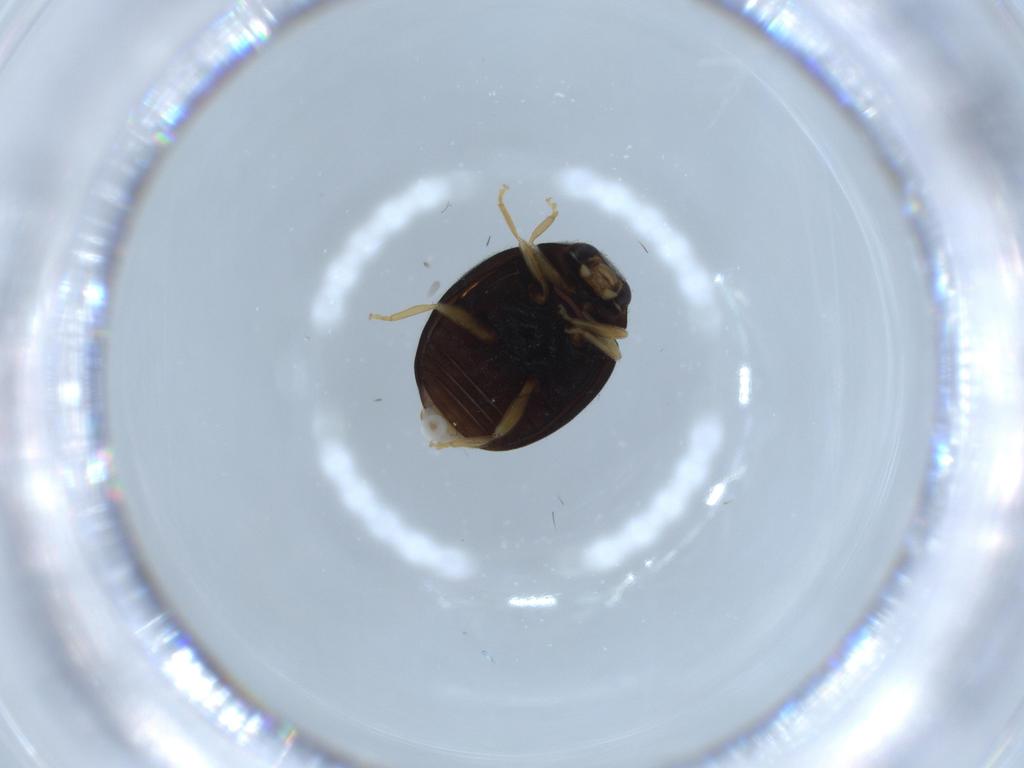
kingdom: Animalia
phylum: Arthropoda
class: Insecta
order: Coleoptera
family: Coccinellidae
